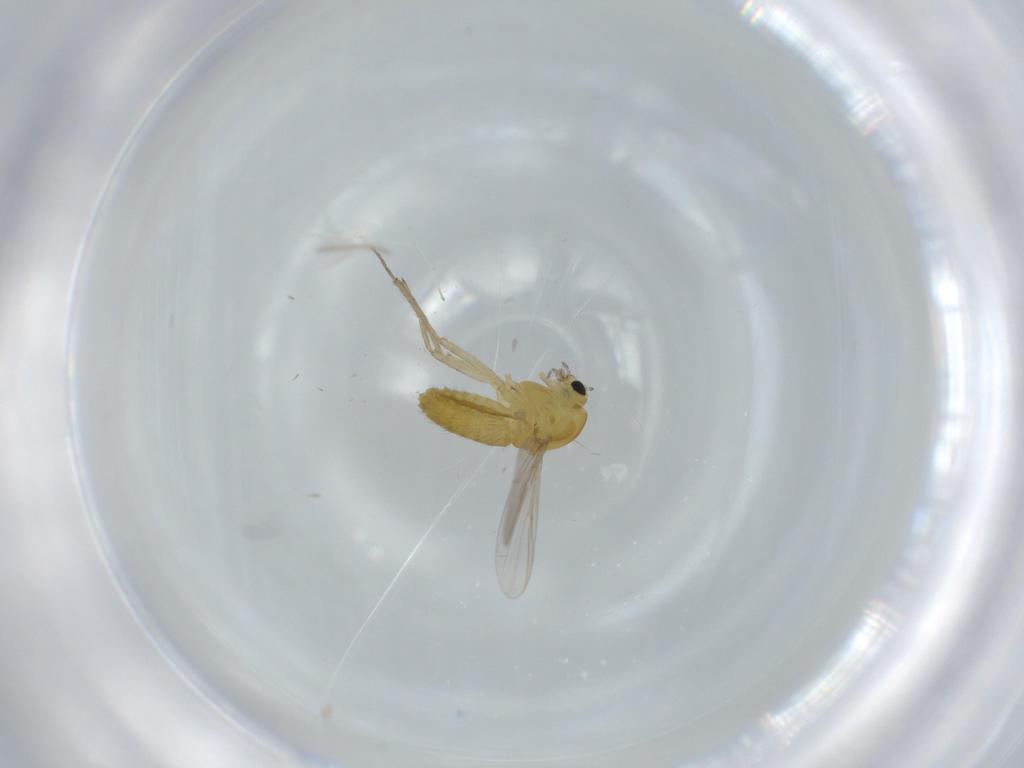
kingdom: Animalia
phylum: Arthropoda
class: Insecta
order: Diptera
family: Chironomidae
